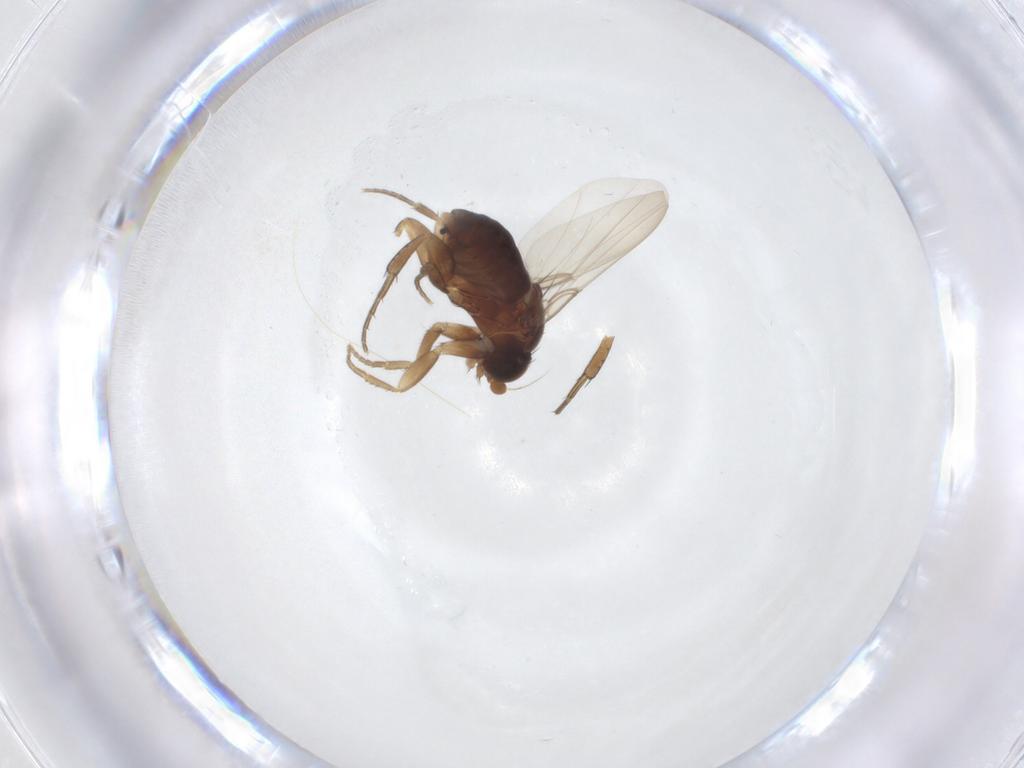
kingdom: Animalia
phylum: Arthropoda
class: Insecta
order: Diptera
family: Phoridae
